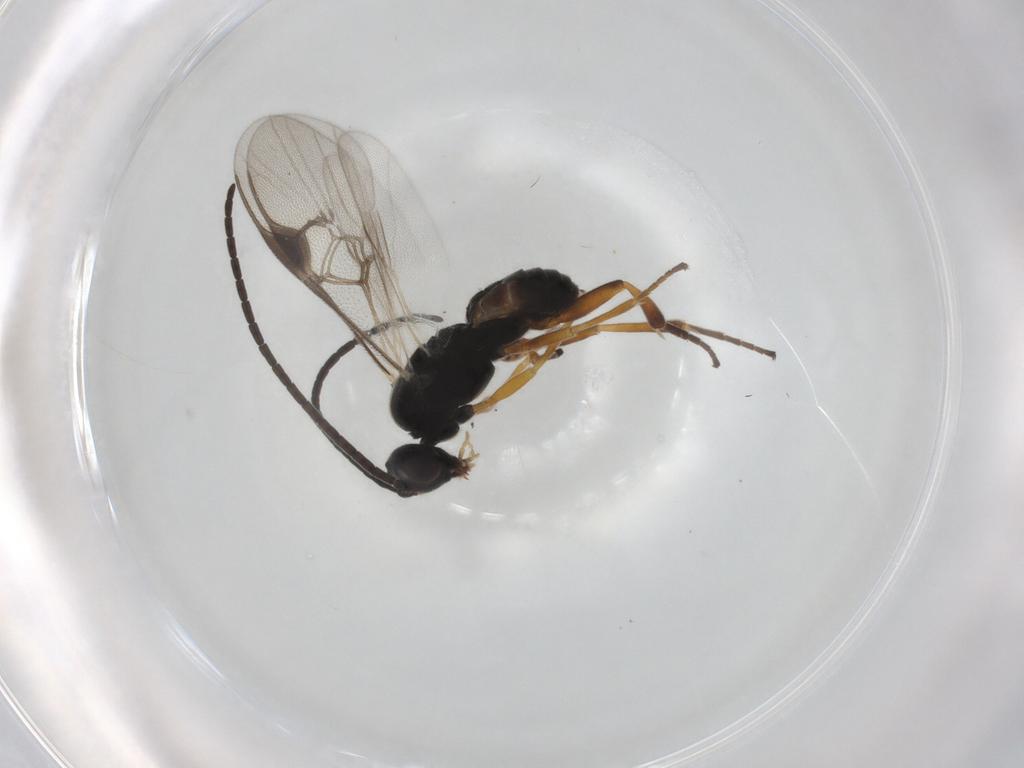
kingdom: Animalia
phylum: Arthropoda
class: Insecta
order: Hymenoptera
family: Braconidae
